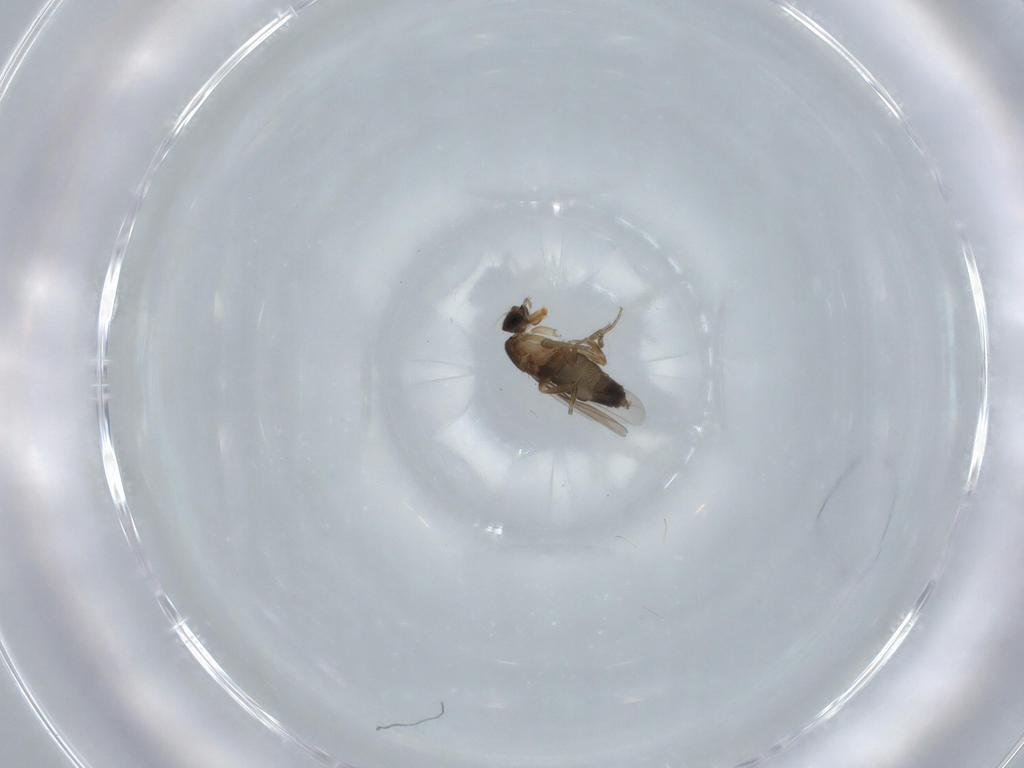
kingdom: Animalia
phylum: Arthropoda
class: Insecta
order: Diptera
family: Phoridae
